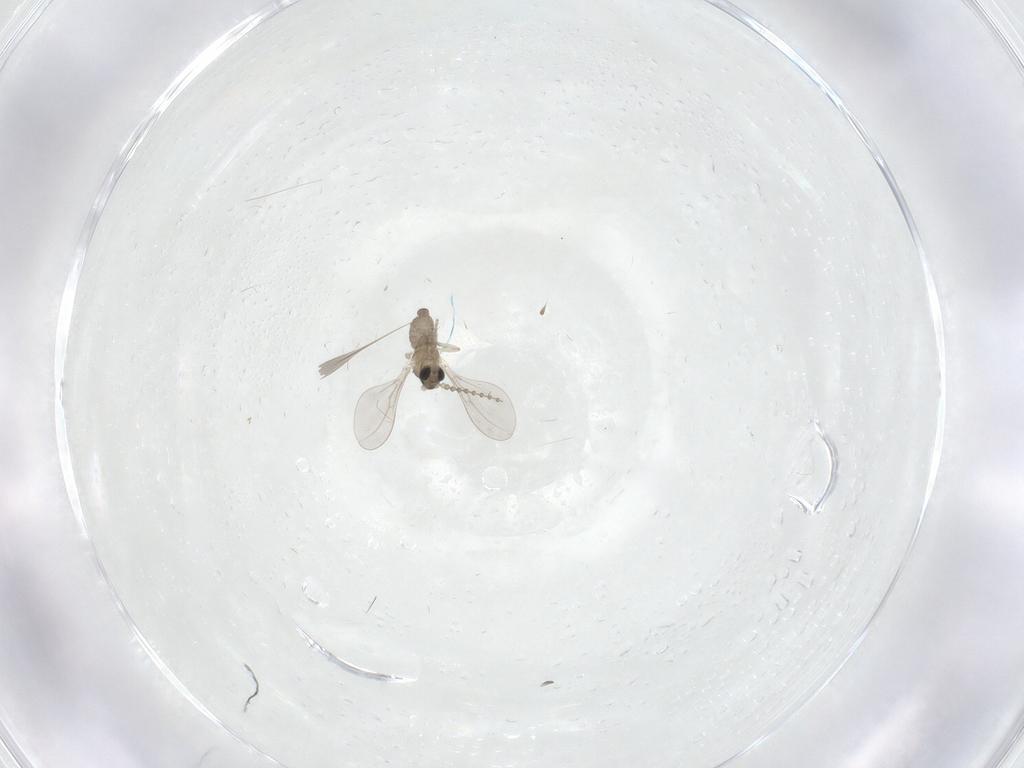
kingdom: Animalia
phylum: Arthropoda
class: Insecta
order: Diptera
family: Cecidomyiidae
